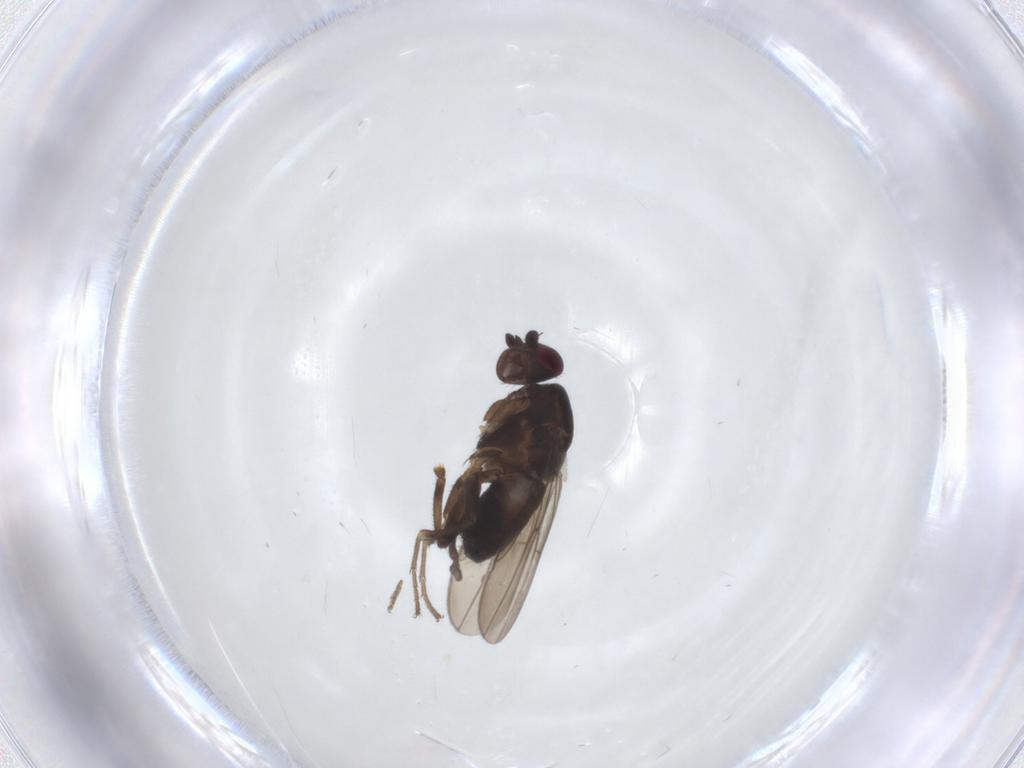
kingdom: Animalia
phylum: Arthropoda
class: Insecta
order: Diptera
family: Sphaeroceridae
